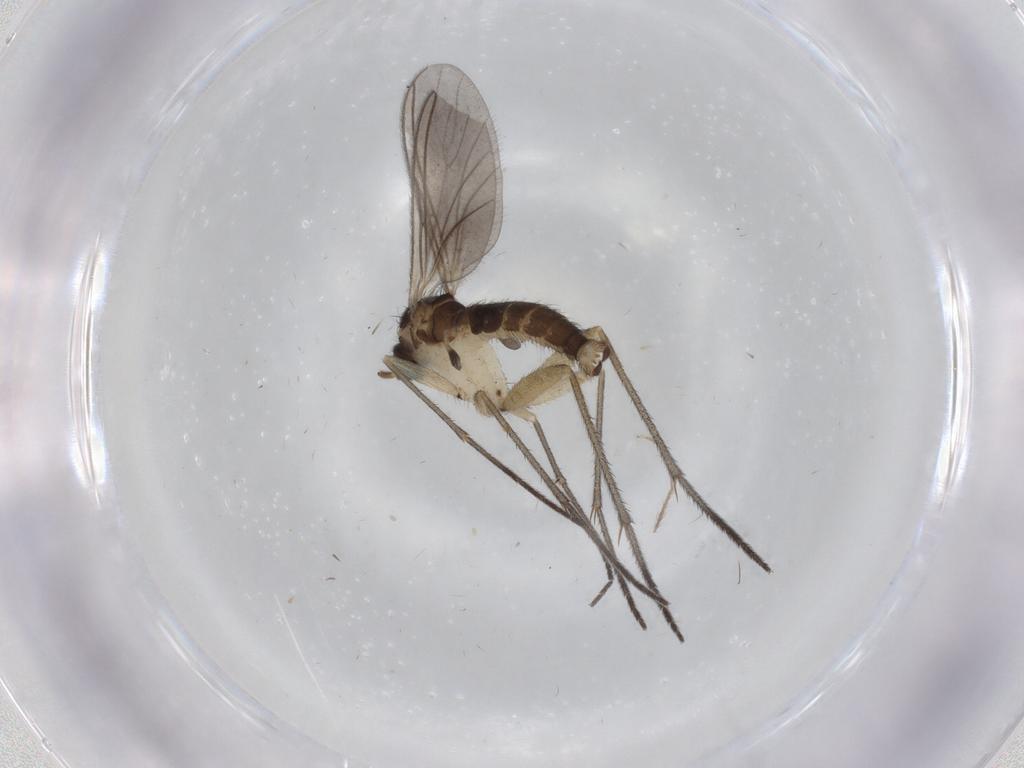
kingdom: Animalia
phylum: Arthropoda
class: Insecta
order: Diptera
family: Sciaridae
